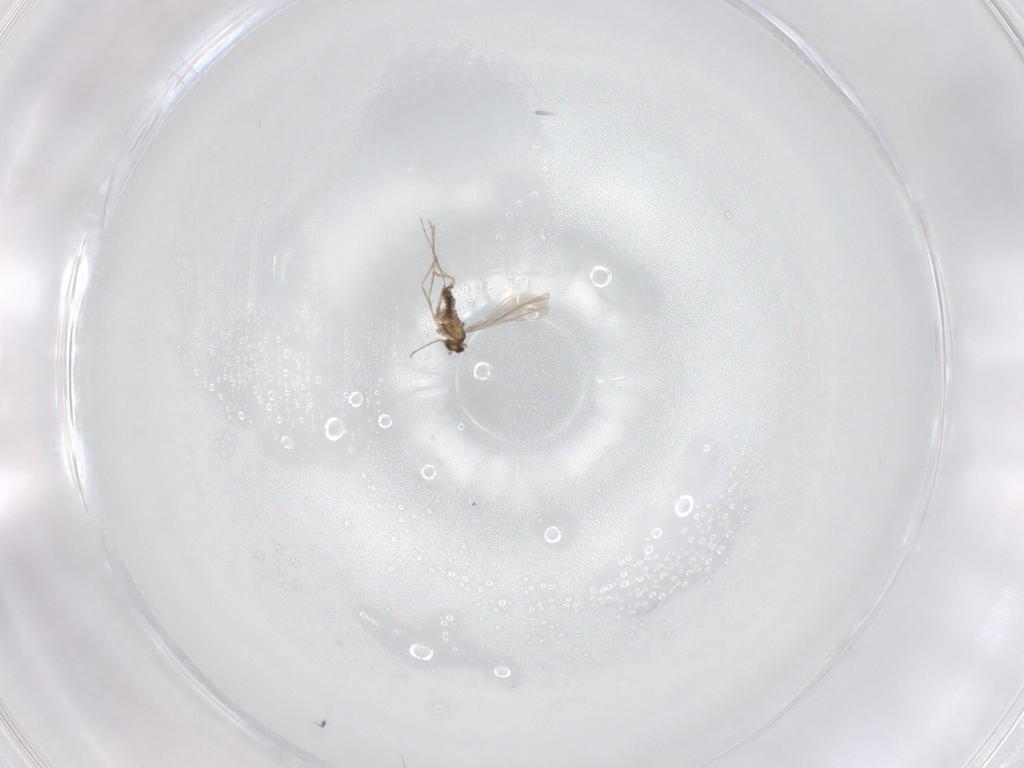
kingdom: Animalia
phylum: Arthropoda
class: Insecta
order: Diptera
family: Cecidomyiidae
